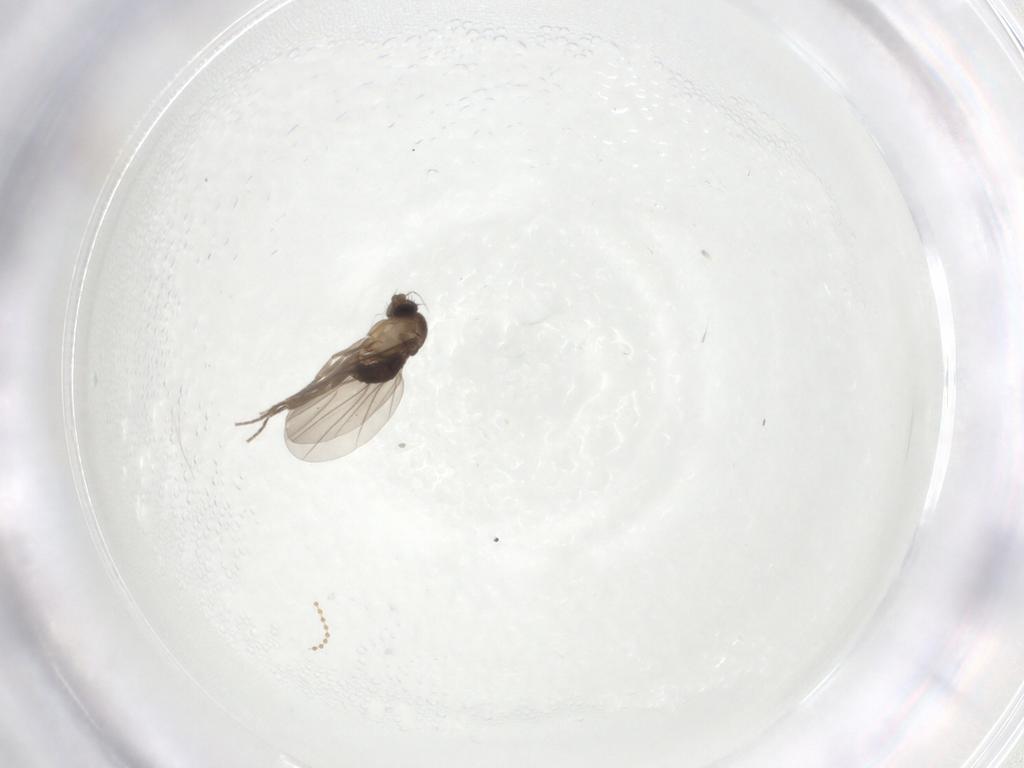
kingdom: Animalia
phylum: Arthropoda
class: Insecta
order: Diptera
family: Phoridae
